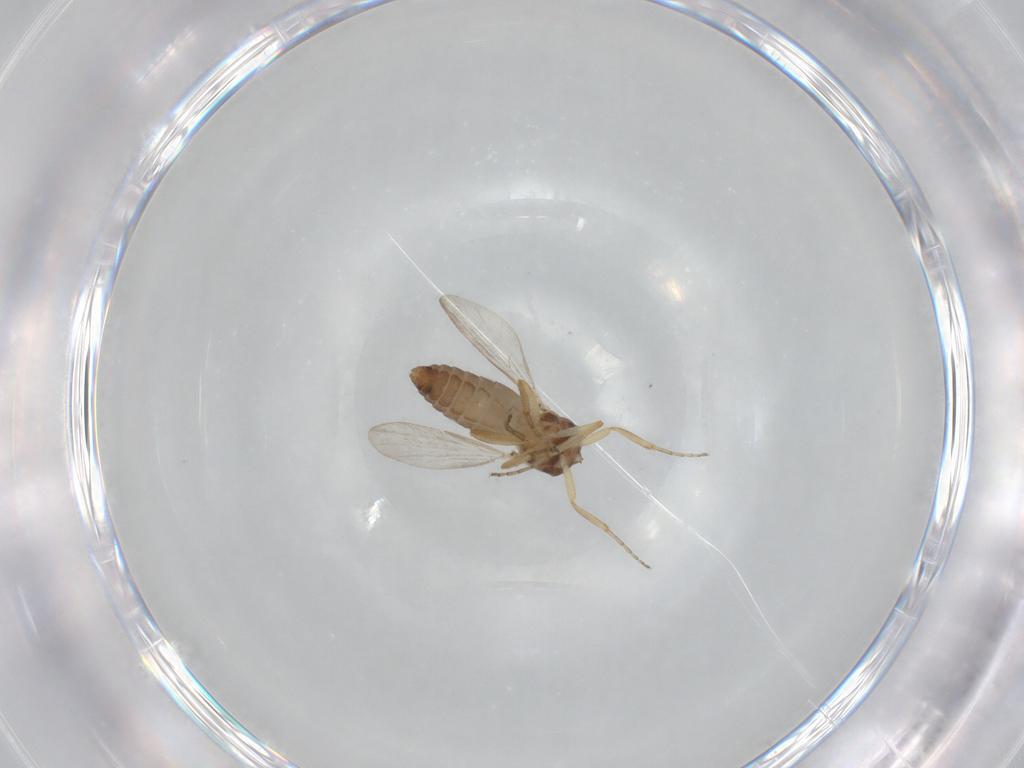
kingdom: Animalia
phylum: Arthropoda
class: Insecta
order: Diptera
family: Ceratopogonidae
